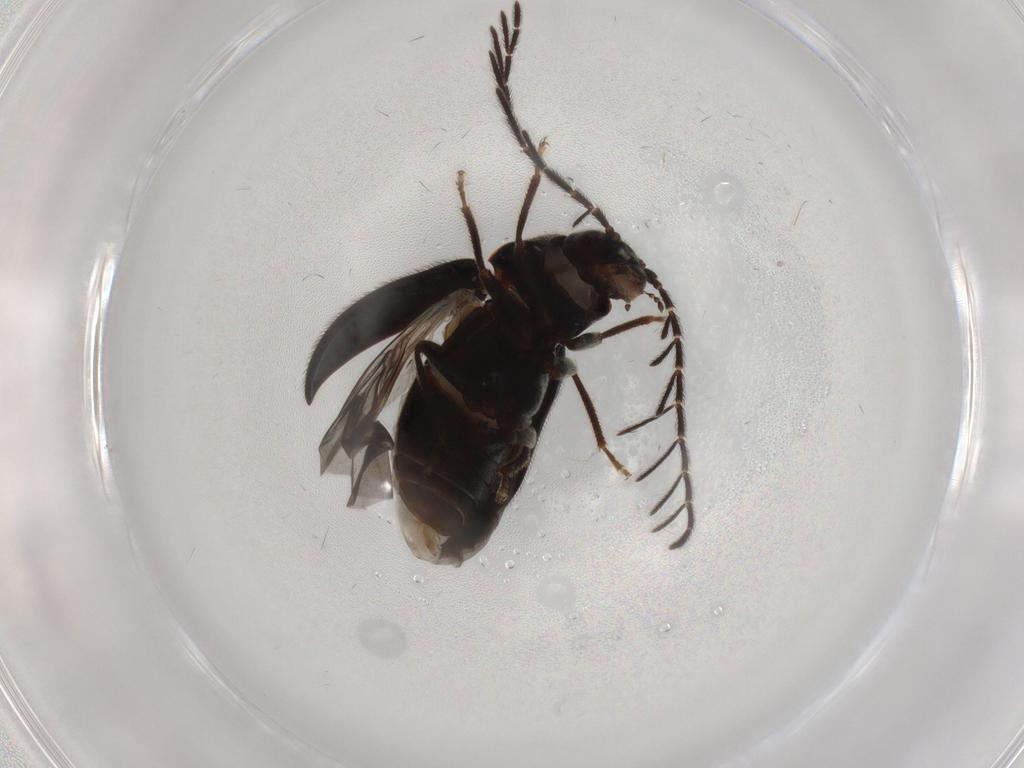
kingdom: Animalia
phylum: Arthropoda
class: Insecta
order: Coleoptera
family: Ptilodactylidae
